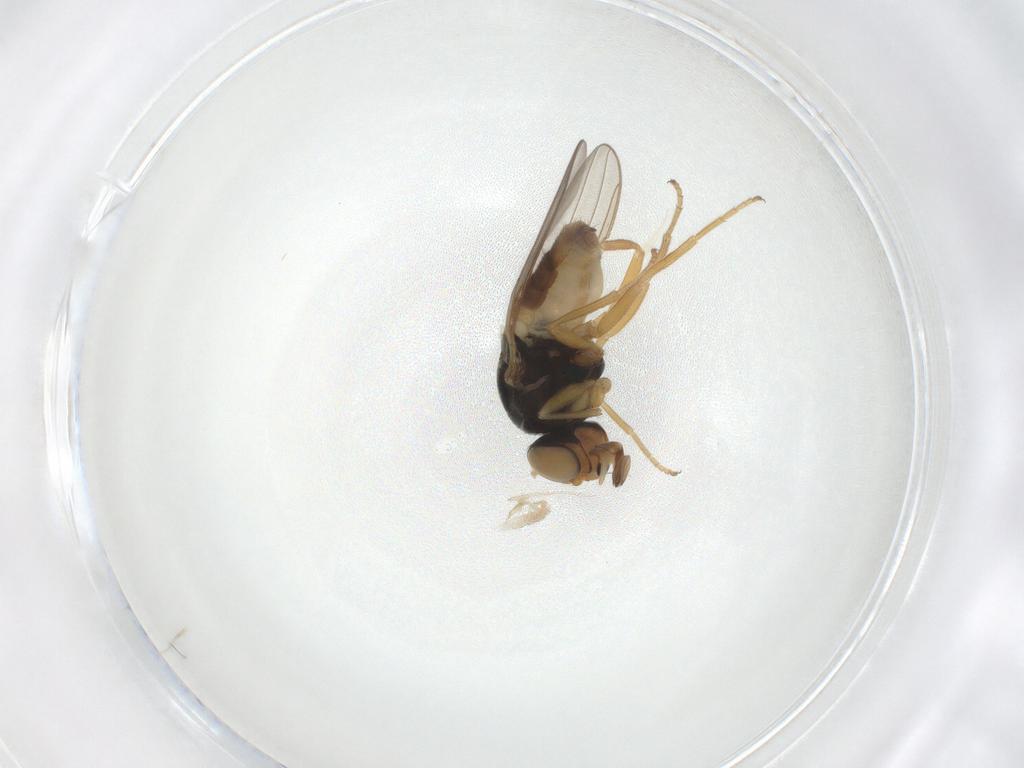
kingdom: Animalia
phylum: Arthropoda
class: Insecta
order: Diptera
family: Chloropidae
